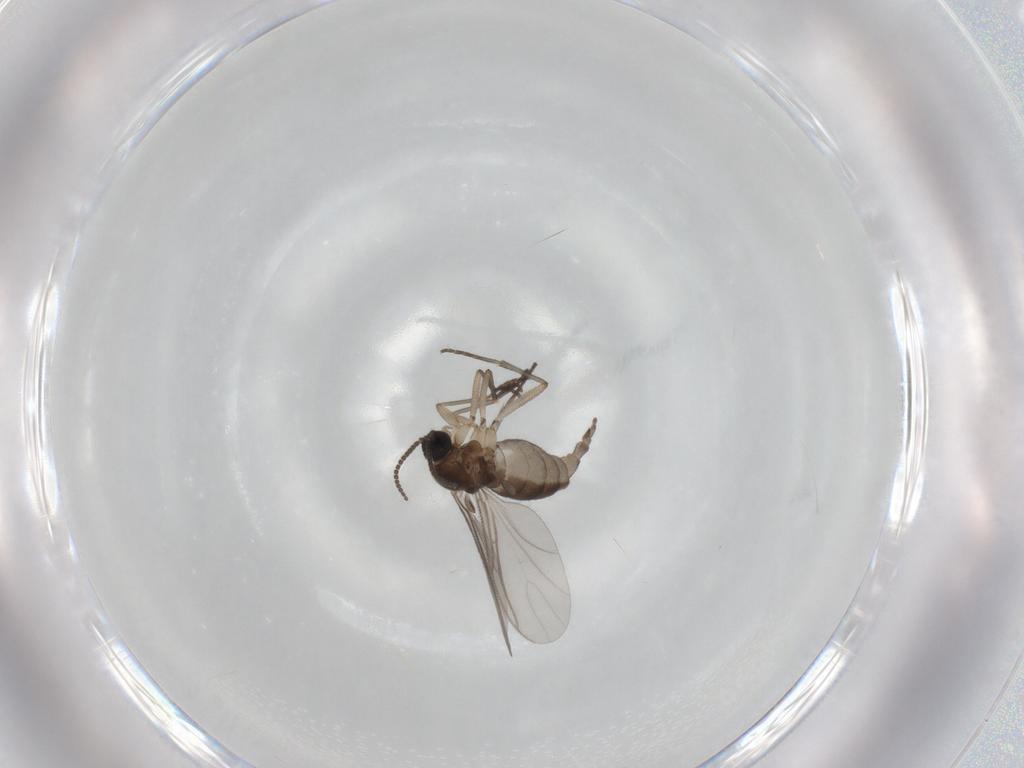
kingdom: Animalia
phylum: Arthropoda
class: Insecta
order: Diptera
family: Sciaridae
